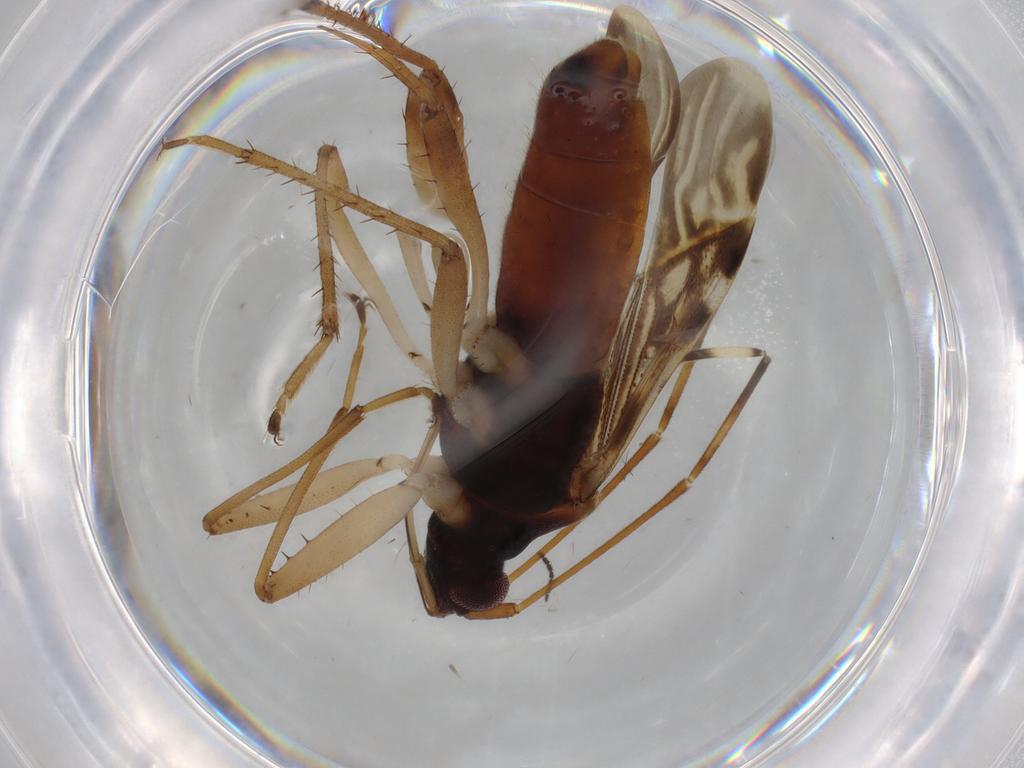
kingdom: Animalia
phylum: Arthropoda
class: Insecta
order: Hemiptera
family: Rhyparochromidae
